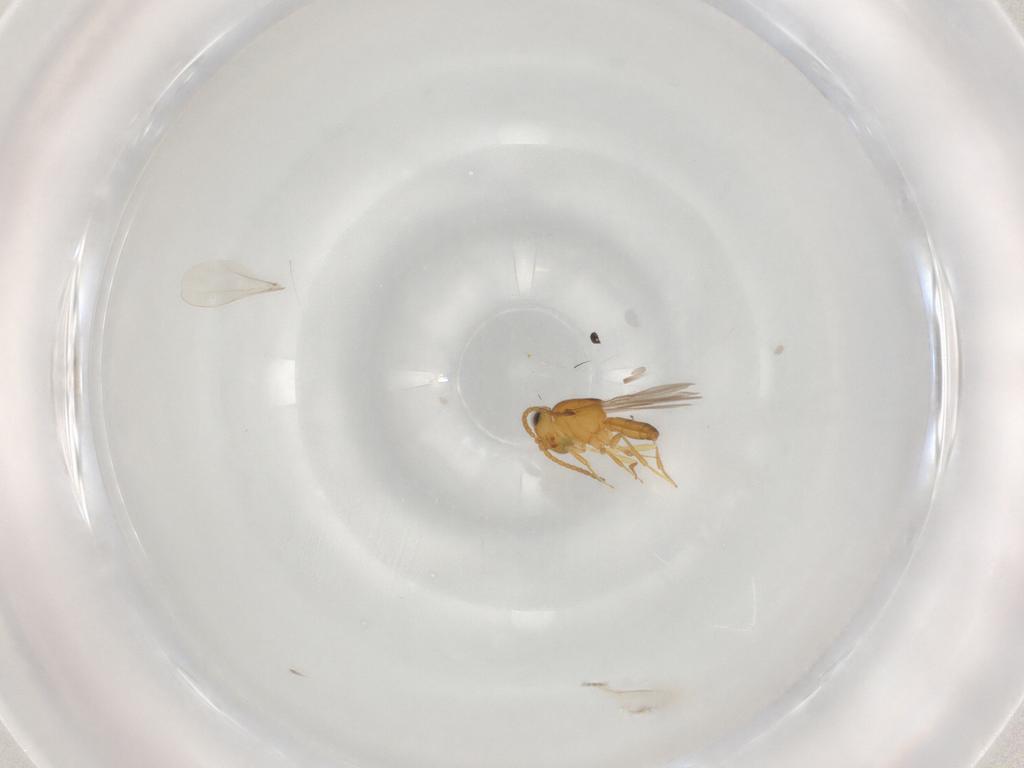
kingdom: Animalia
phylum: Arthropoda
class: Insecta
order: Hymenoptera
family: Scelionidae
